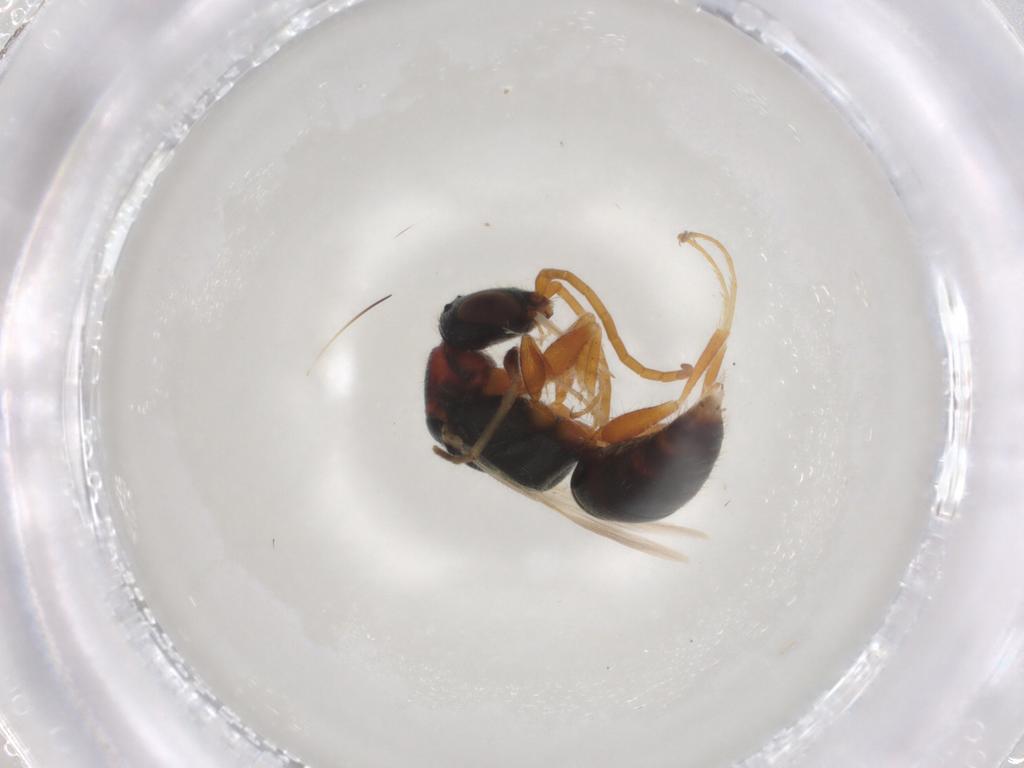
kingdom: Animalia
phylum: Arthropoda
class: Insecta
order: Hymenoptera
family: Bethylidae
